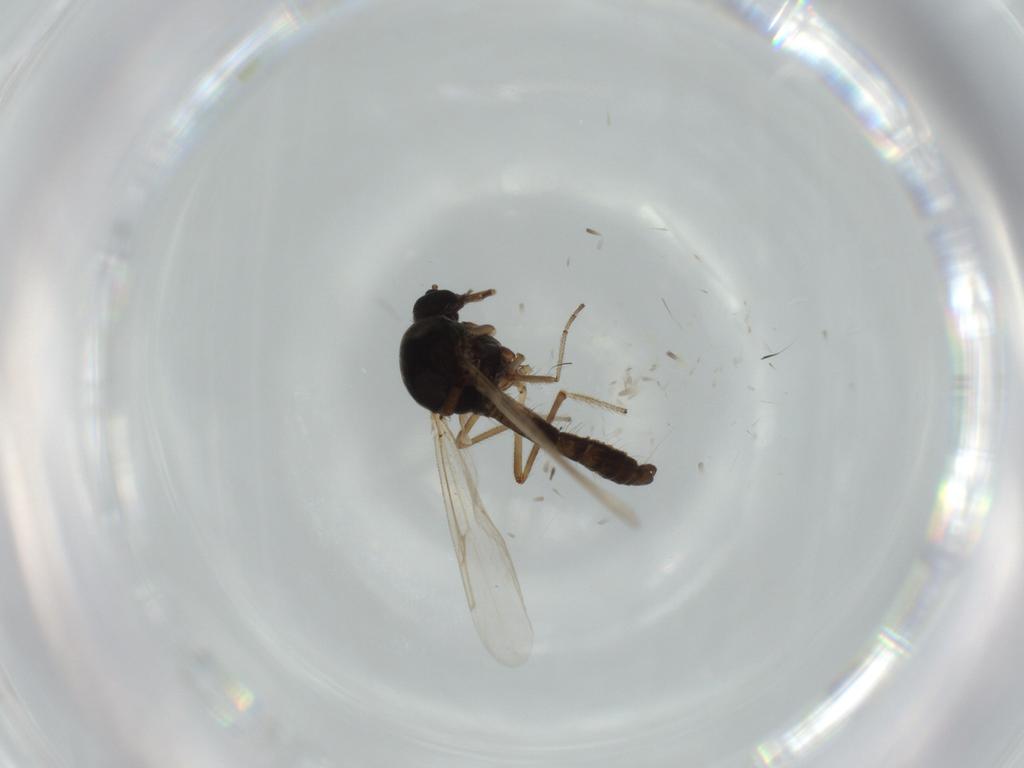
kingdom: Animalia
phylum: Arthropoda
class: Insecta
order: Diptera
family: Ceratopogonidae
